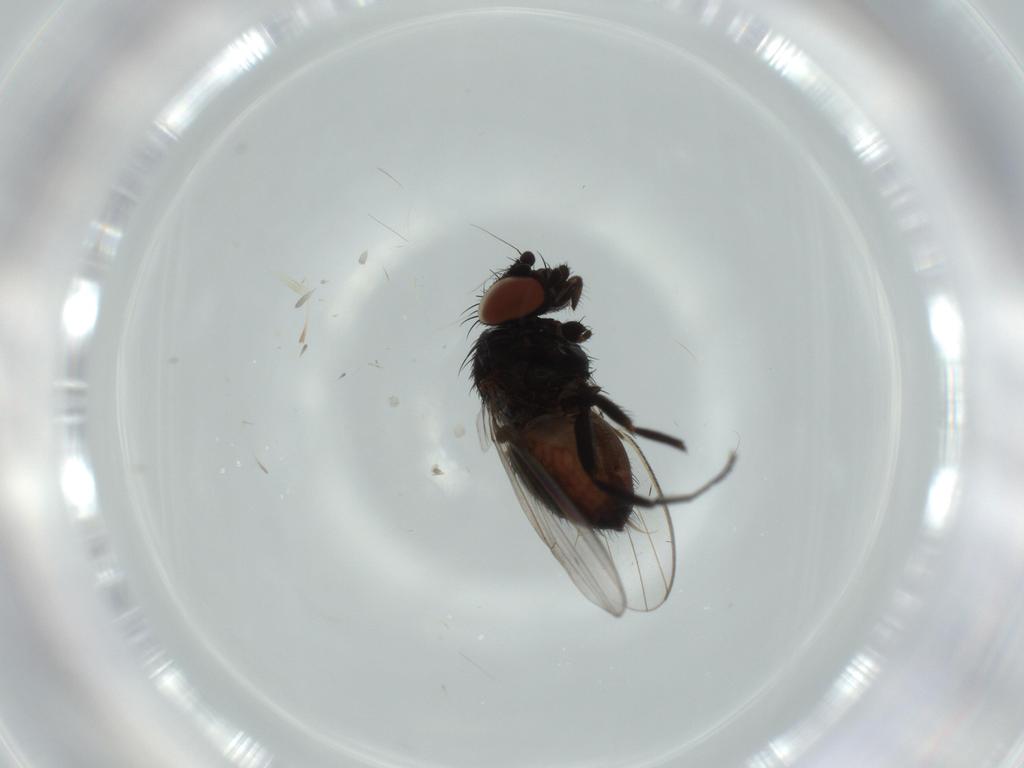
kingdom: Animalia
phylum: Arthropoda
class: Insecta
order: Diptera
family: Milichiidae
